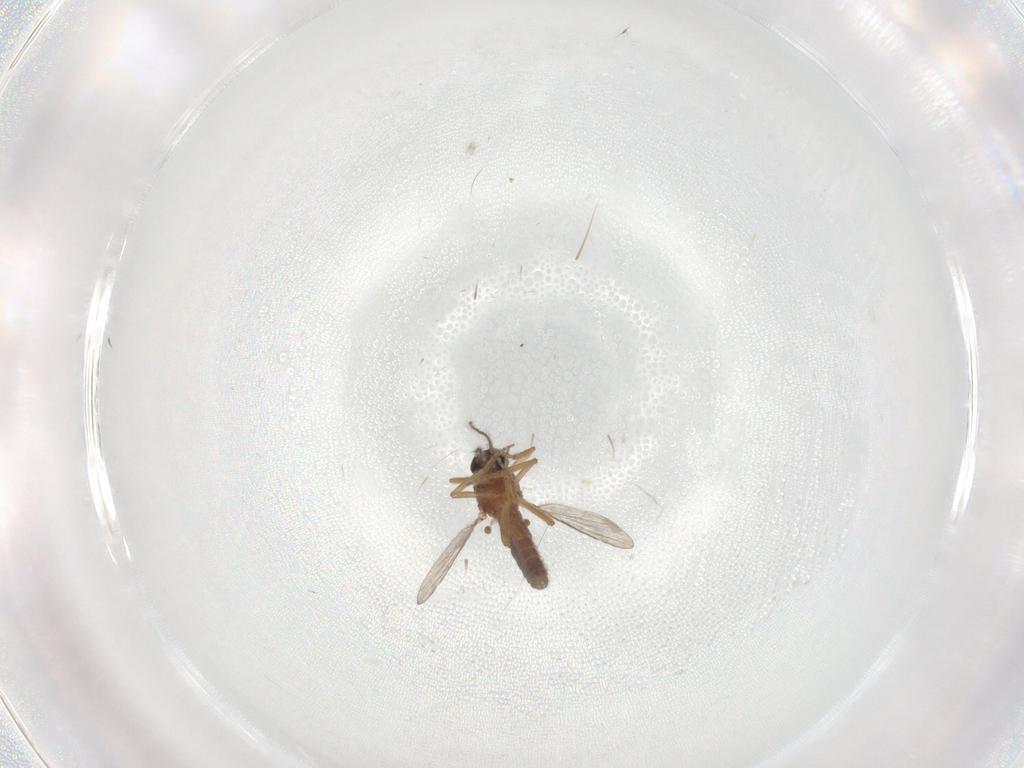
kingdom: Animalia
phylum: Arthropoda
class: Insecta
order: Diptera
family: Ceratopogonidae
